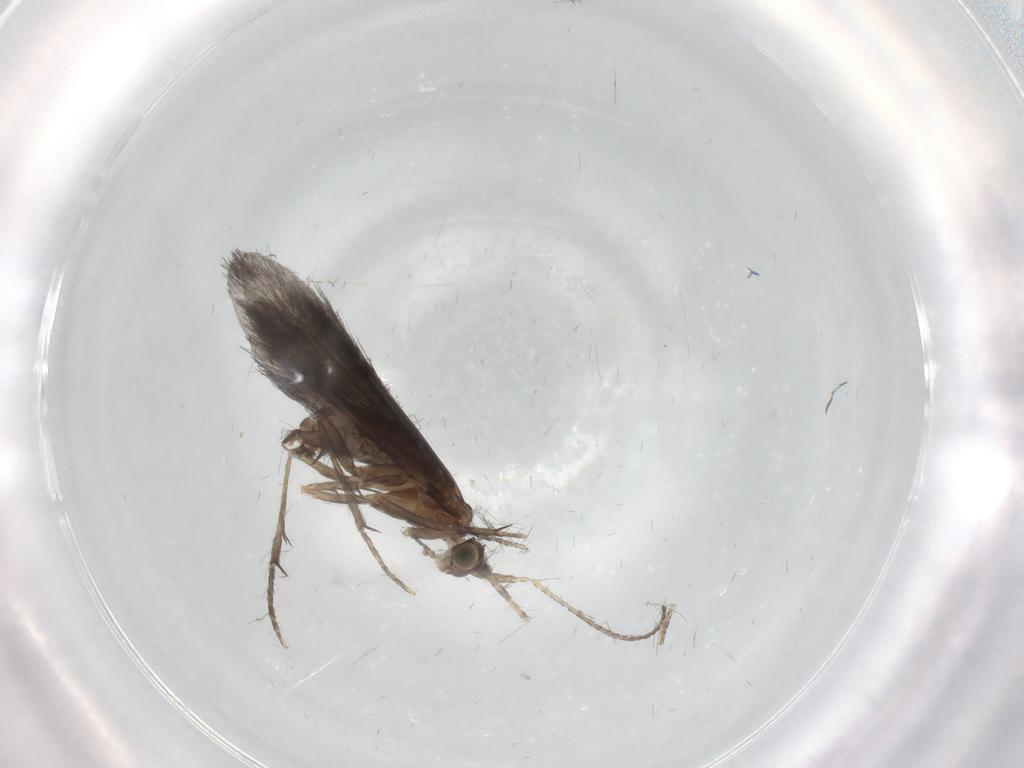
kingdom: Animalia
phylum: Arthropoda
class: Insecta
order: Trichoptera
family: Glossosomatidae
